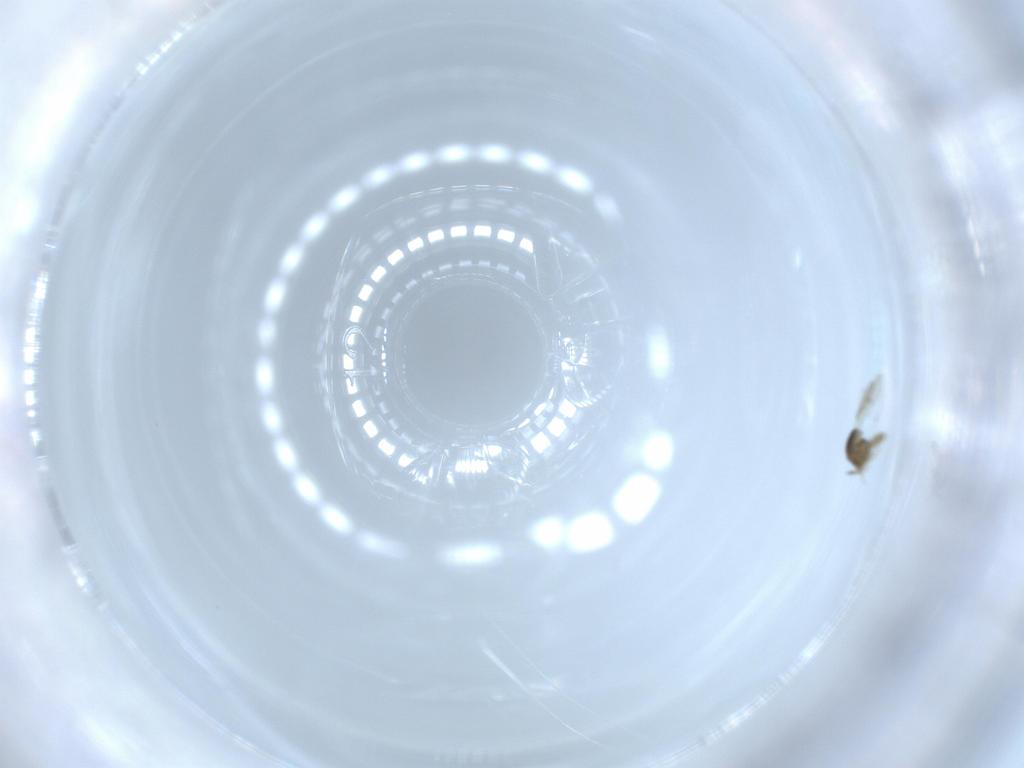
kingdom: Animalia
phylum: Arthropoda
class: Insecta
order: Hymenoptera
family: Scelionidae
